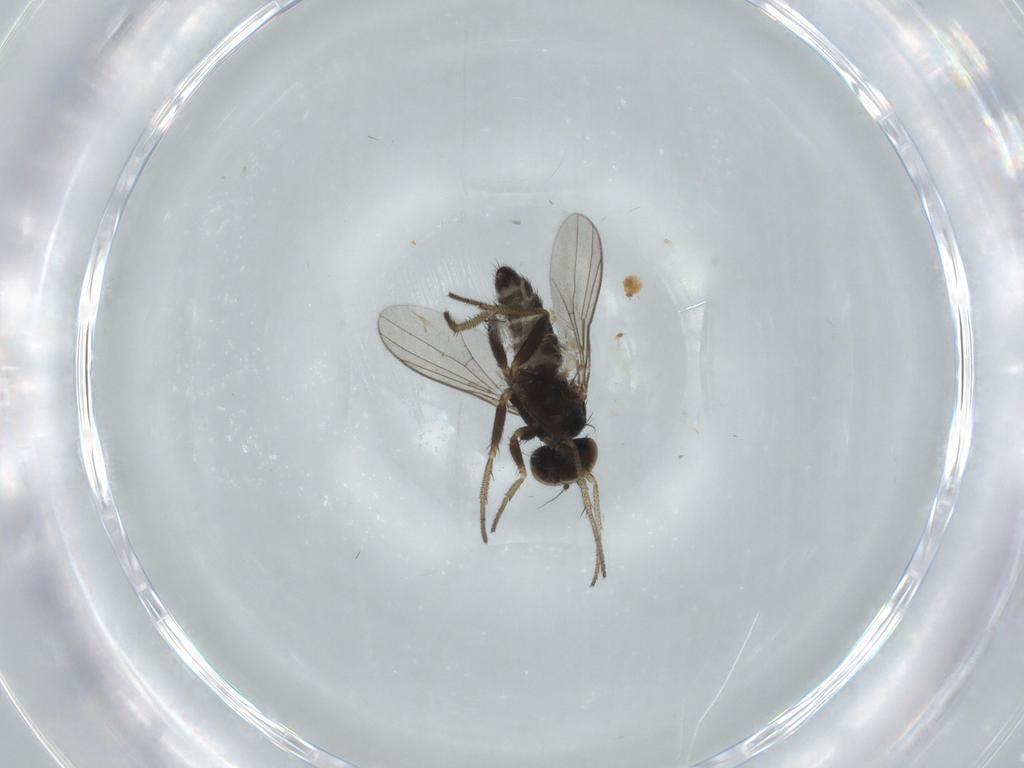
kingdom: Animalia
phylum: Arthropoda
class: Insecta
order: Diptera
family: Chironomidae
